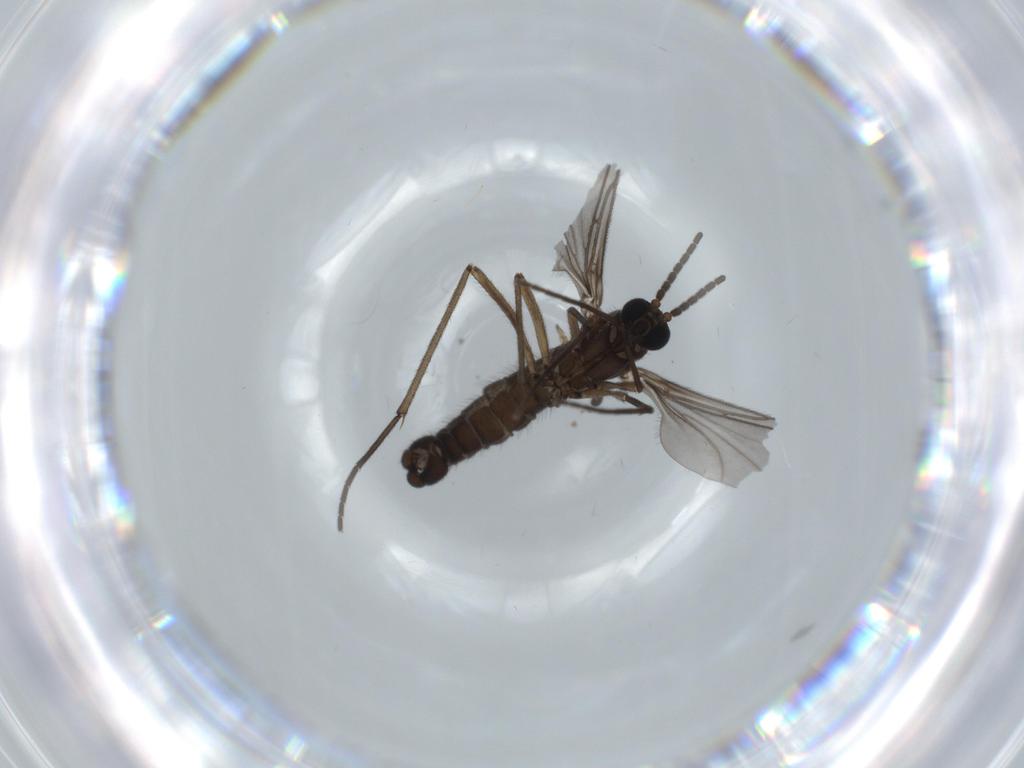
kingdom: Animalia
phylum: Arthropoda
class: Insecta
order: Diptera
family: Sciaridae
